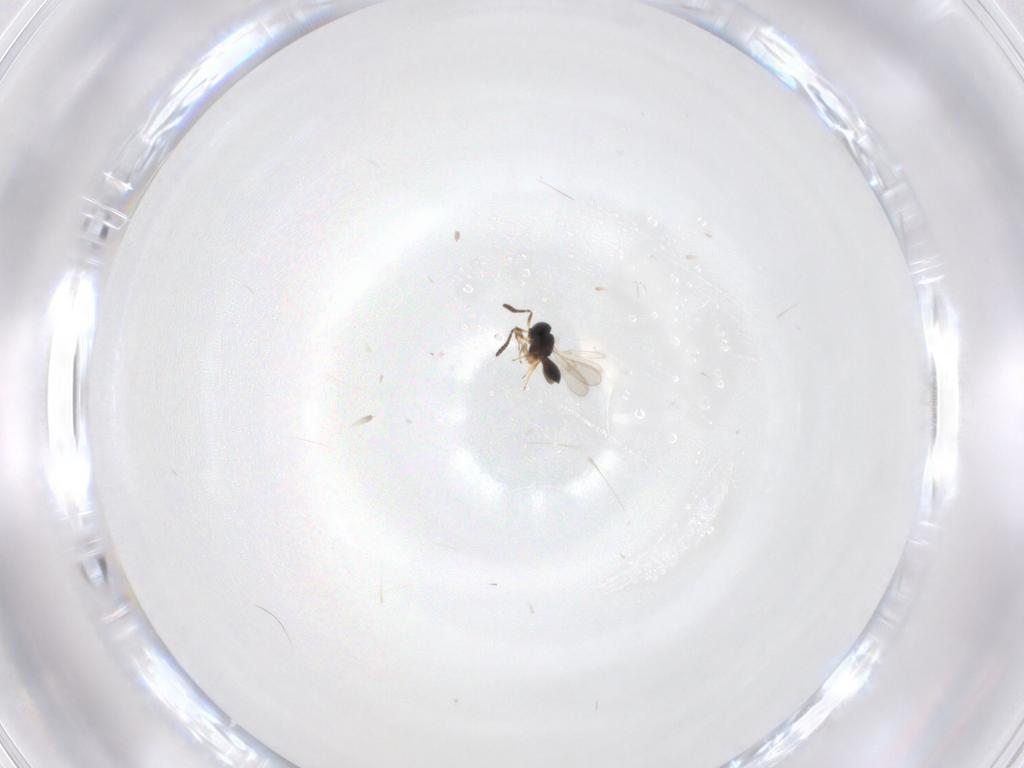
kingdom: Animalia
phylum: Arthropoda
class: Insecta
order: Hymenoptera
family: Scelionidae
